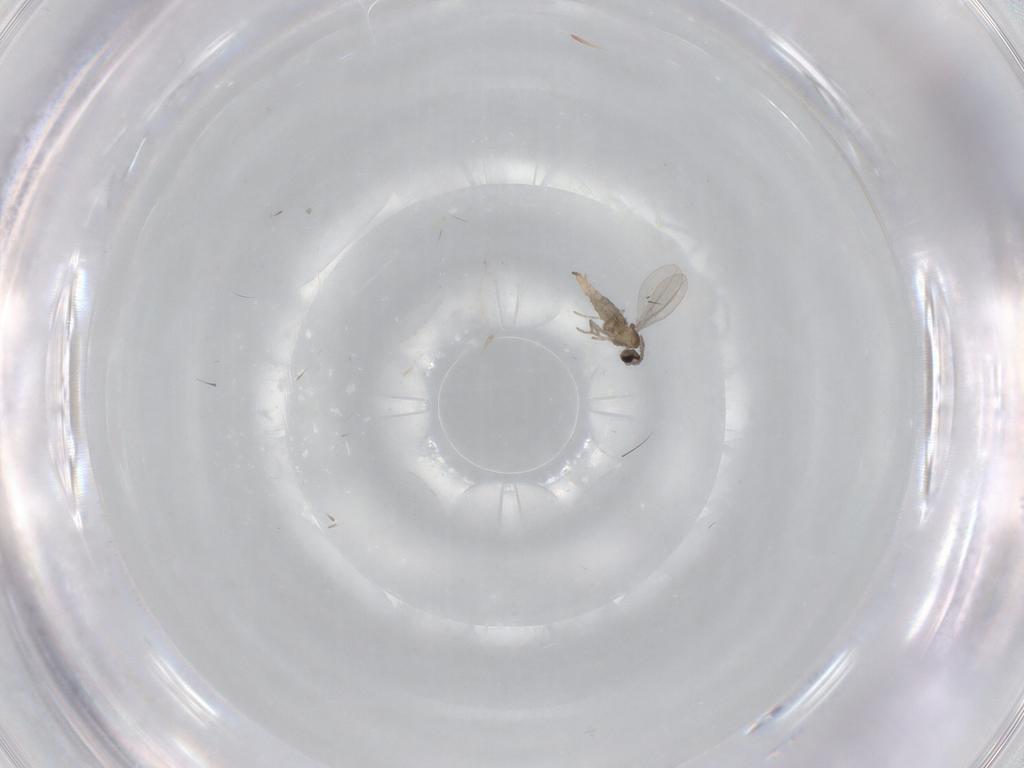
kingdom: Animalia
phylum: Arthropoda
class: Insecta
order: Diptera
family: Cecidomyiidae
